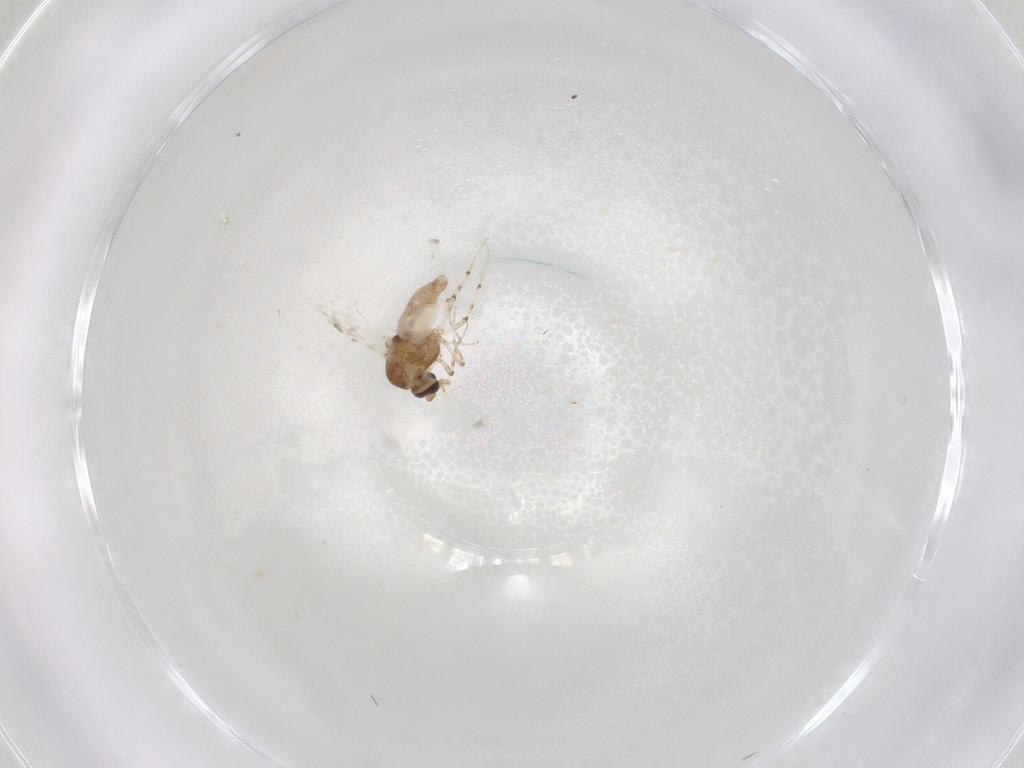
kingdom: Animalia
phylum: Arthropoda
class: Insecta
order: Diptera
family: Ceratopogonidae
